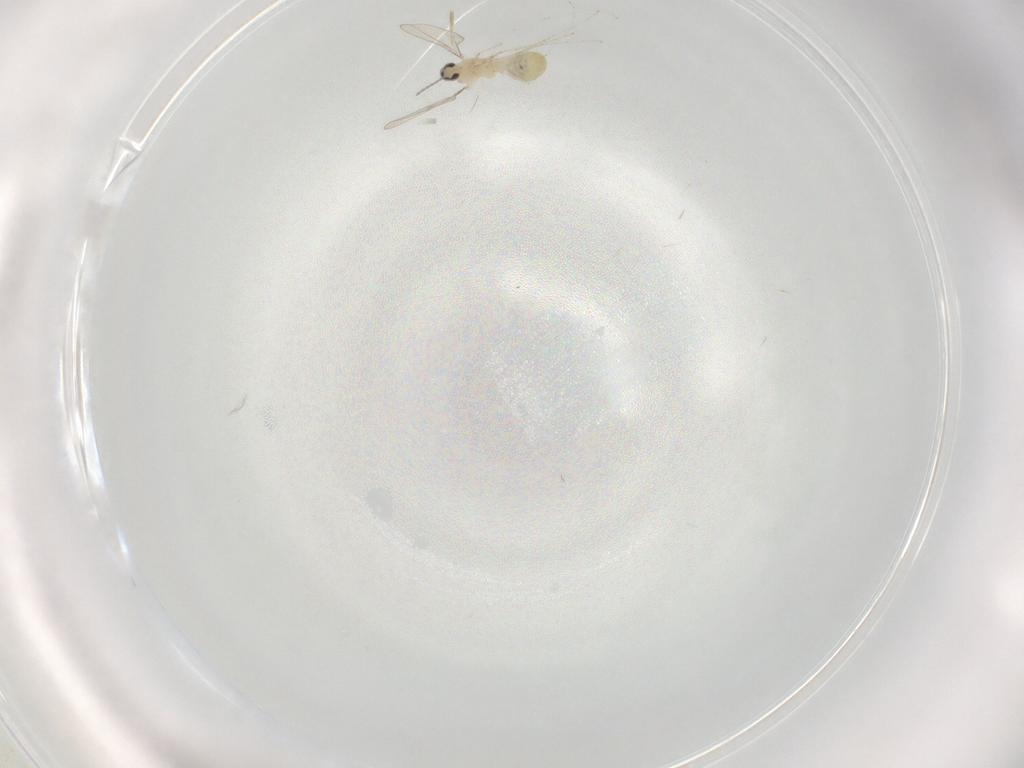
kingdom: Animalia
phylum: Arthropoda
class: Insecta
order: Diptera
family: Cecidomyiidae
